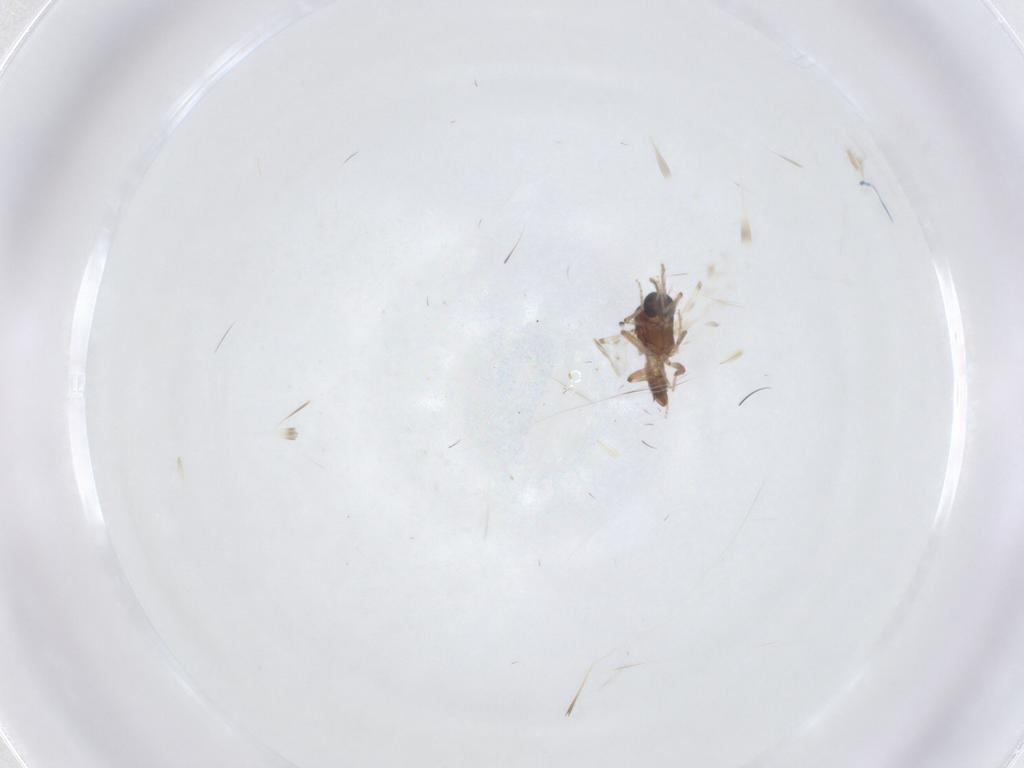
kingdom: Animalia
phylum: Arthropoda
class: Insecta
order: Diptera
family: Ceratopogonidae
